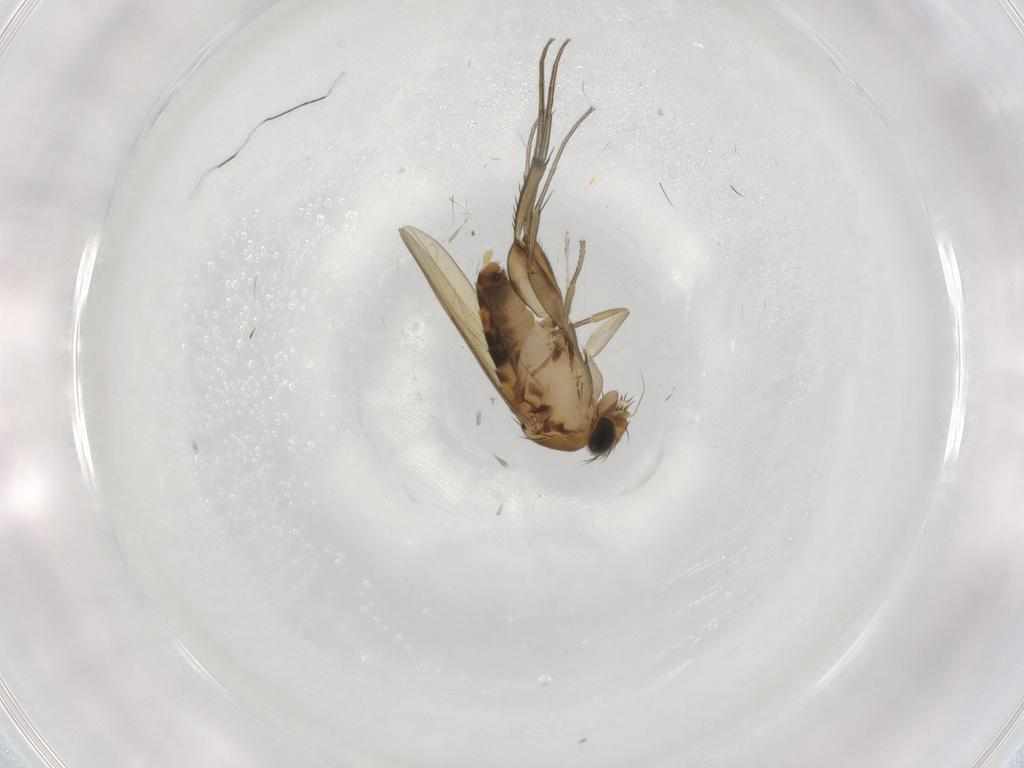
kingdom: Animalia
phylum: Arthropoda
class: Insecta
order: Diptera
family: Phoridae
